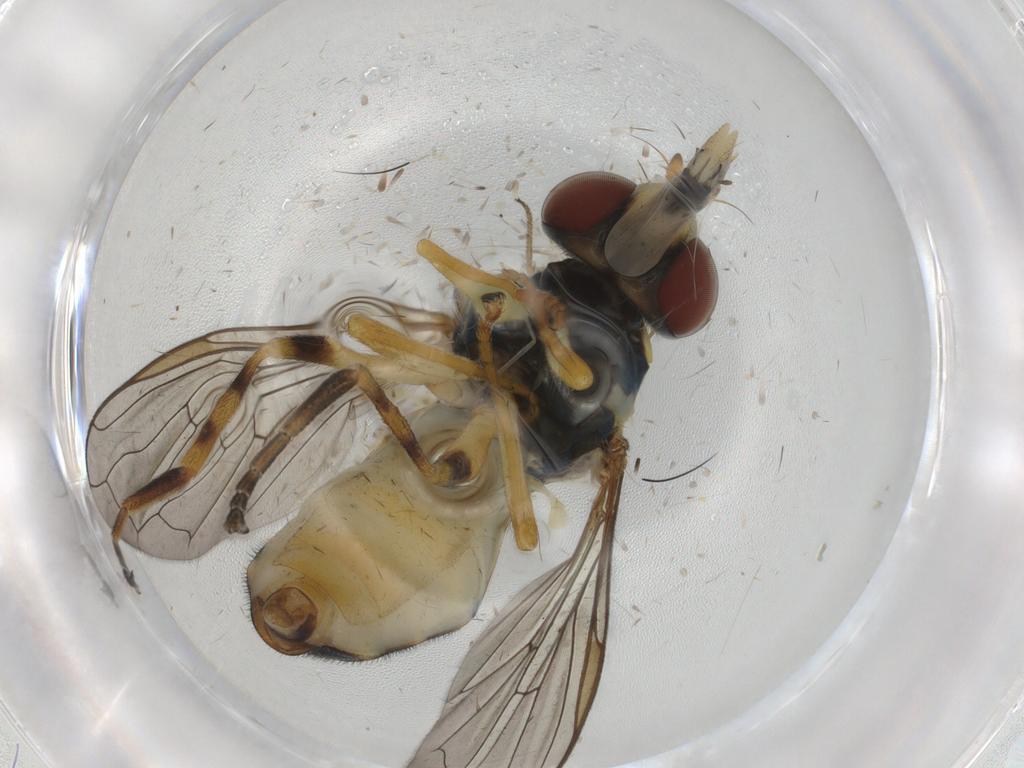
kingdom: Animalia
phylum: Arthropoda
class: Insecta
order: Diptera
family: Syrphidae
